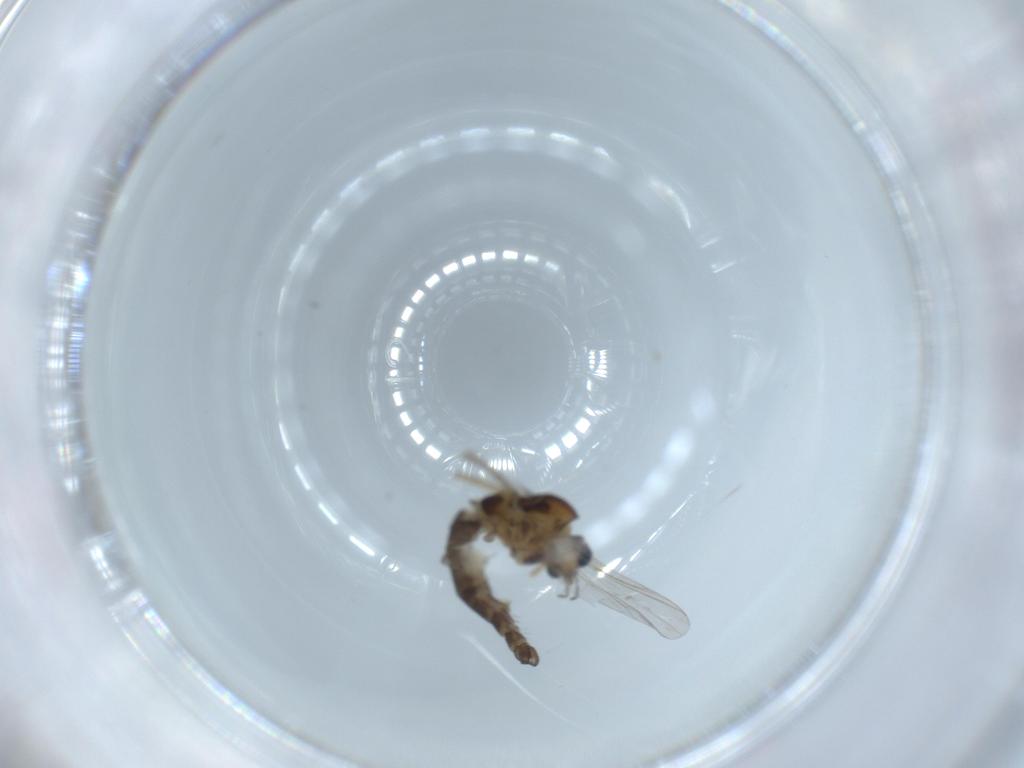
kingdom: Animalia
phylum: Arthropoda
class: Insecta
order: Diptera
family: Chironomidae
